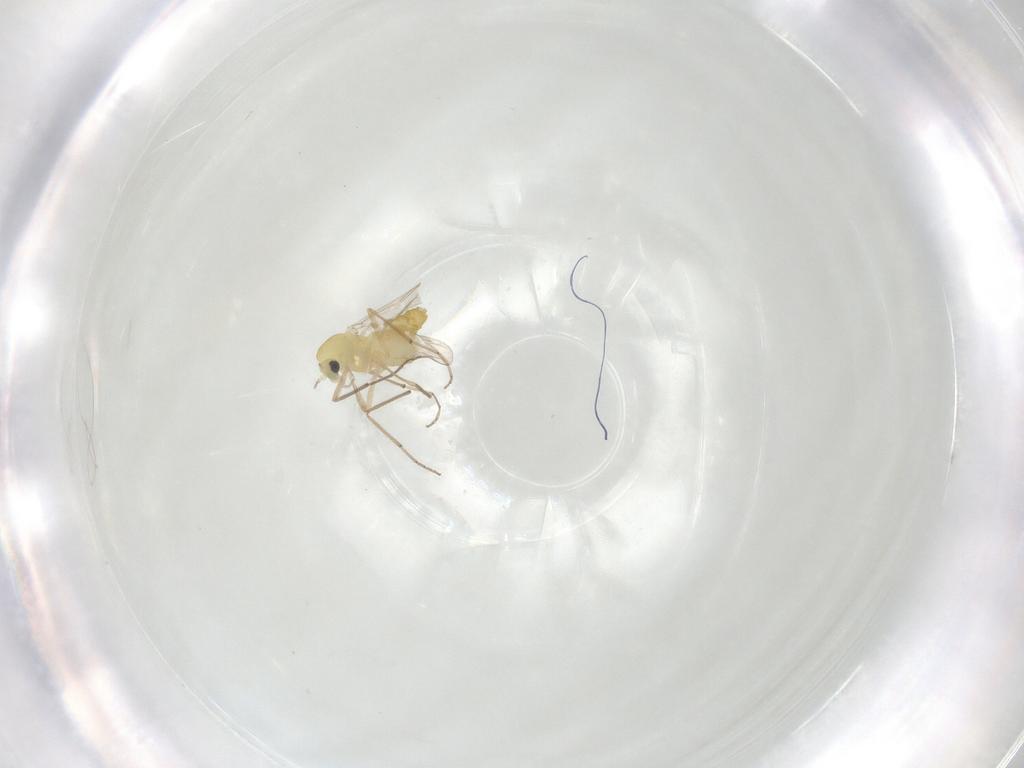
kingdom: Animalia
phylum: Arthropoda
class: Insecta
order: Diptera
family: Chironomidae
